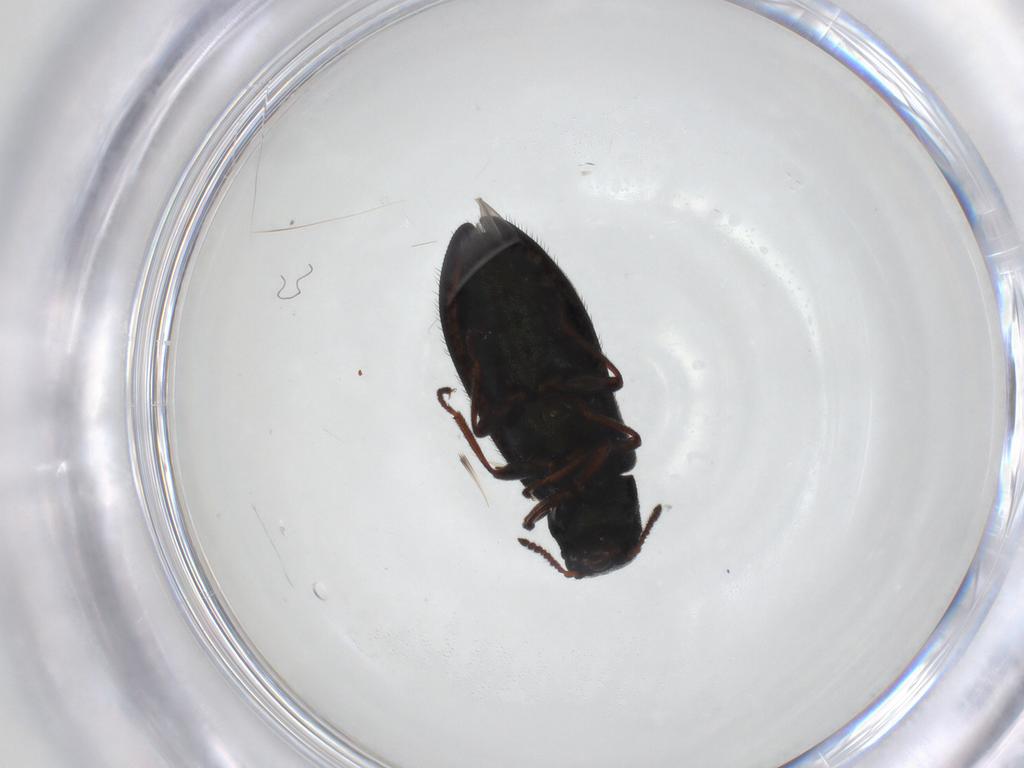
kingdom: Animalia
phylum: Arthropoda
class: Insecta
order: Coleoptera
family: Melyridae
